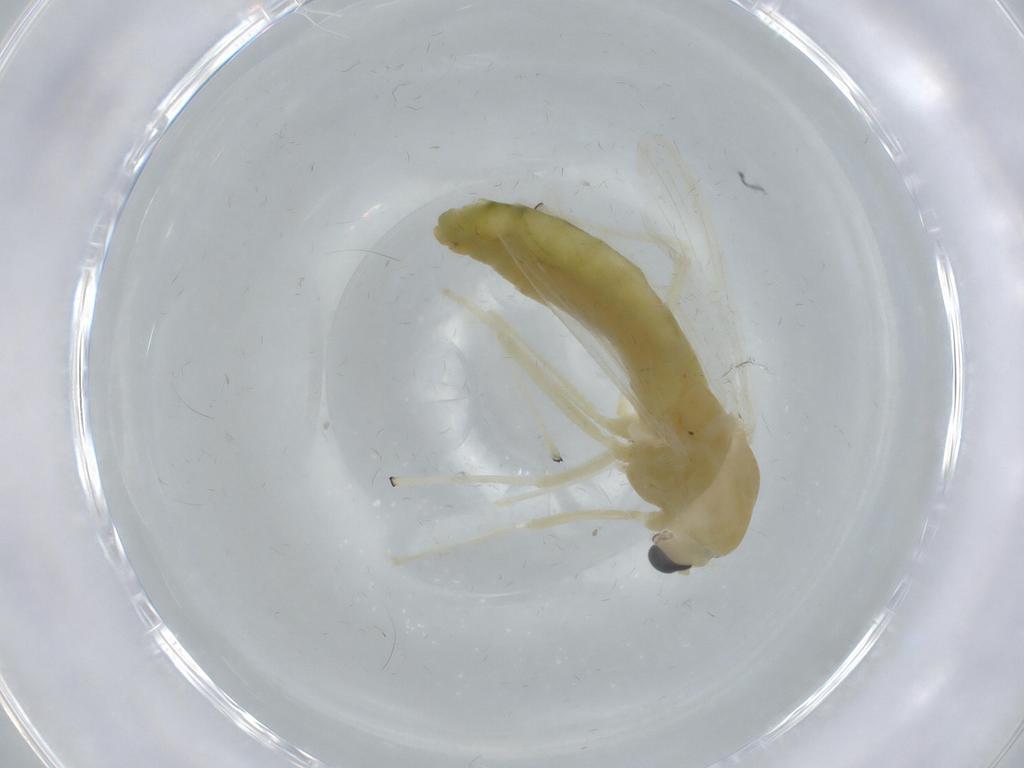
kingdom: Animalia
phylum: Arthropoda
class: Insecta
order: Diptera
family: Chironomidae
